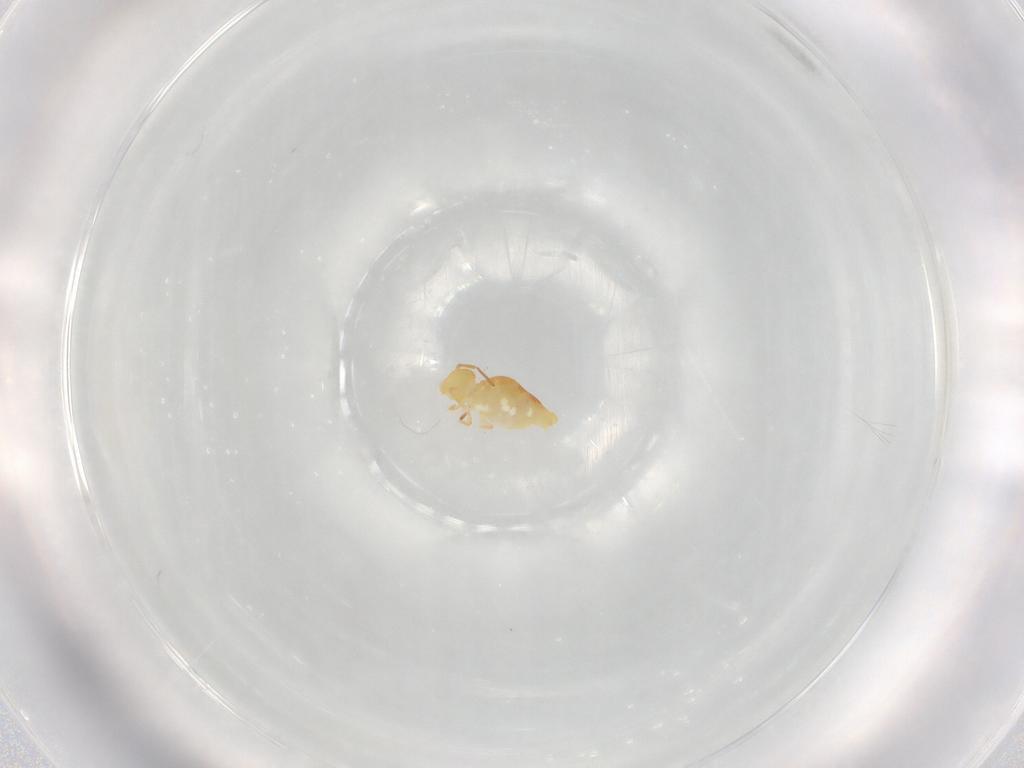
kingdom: Animalia
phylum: Arthropoda
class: Collembola
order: Symphypleona
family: Bourletiellidae
